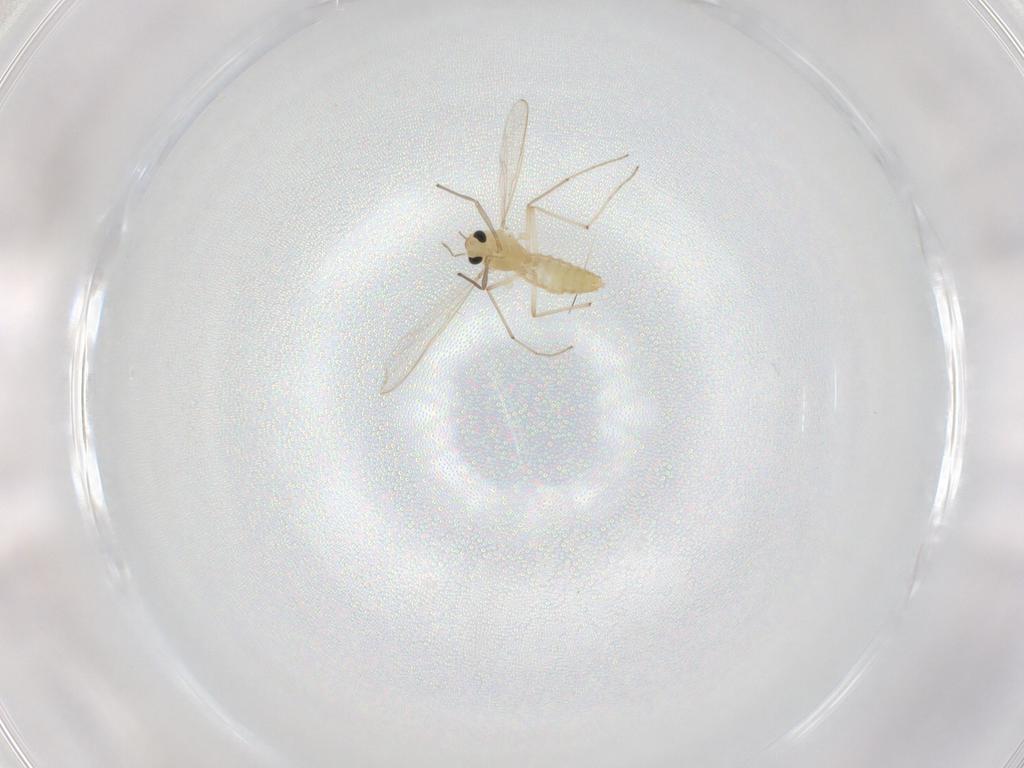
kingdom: Animalia
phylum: Arthropoda
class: Insecta
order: Diptera
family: Chironomidae
